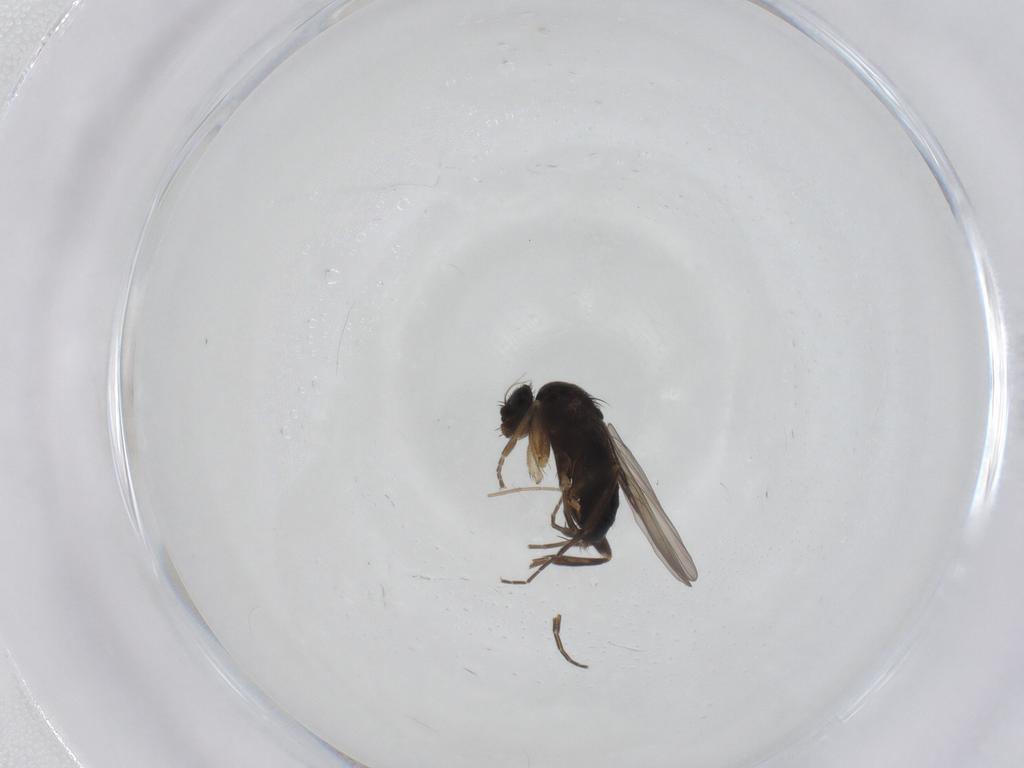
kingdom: Animalia
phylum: Arthropoda
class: Insecta
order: Diptera
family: Phoridae
